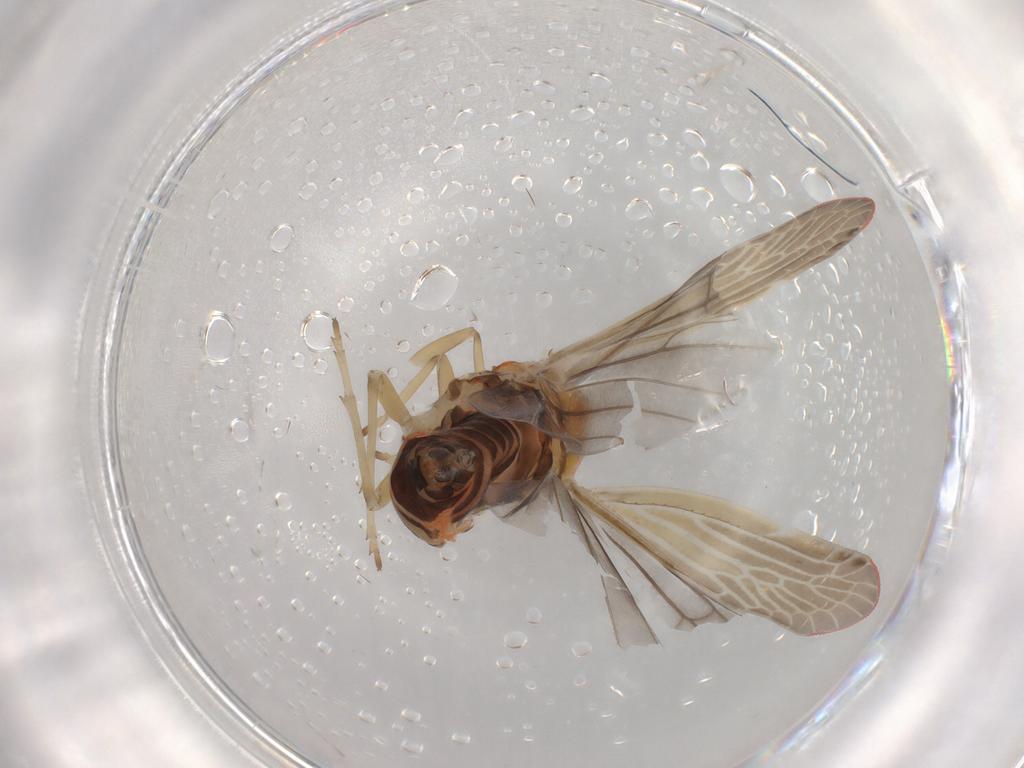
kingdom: Animalia
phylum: Arthropoda
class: Insecta
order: Hemiptera
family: Derbidae
